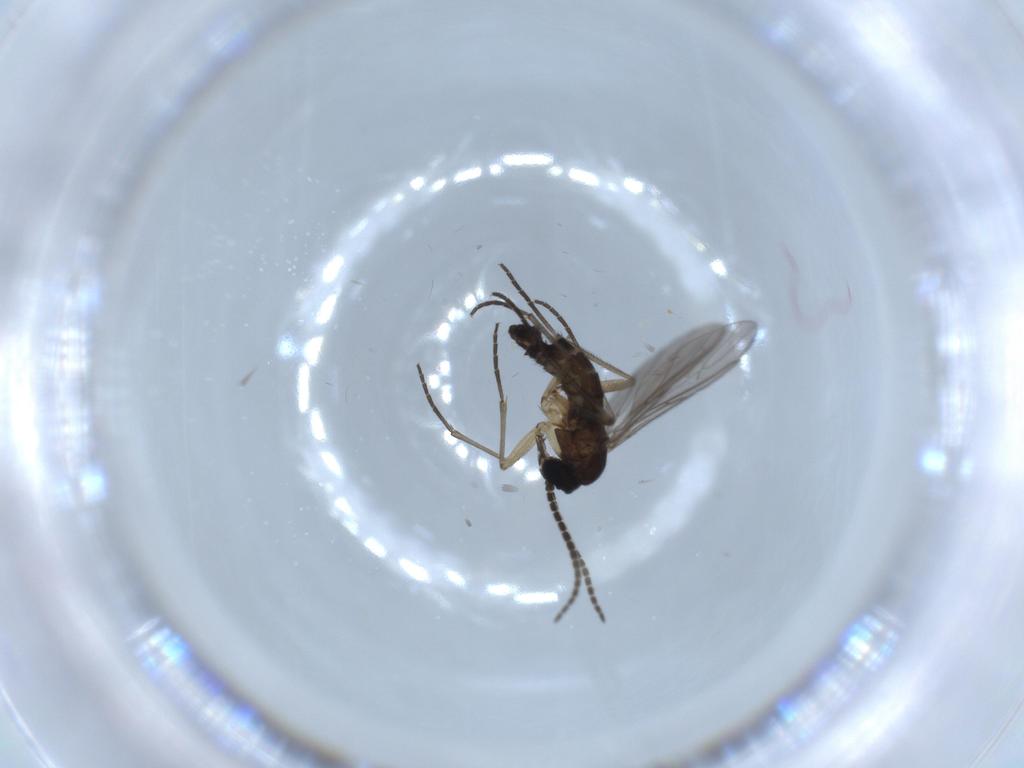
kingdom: Animalia
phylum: Arthropoda
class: Insecta
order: Diptera
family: Sciaridae
